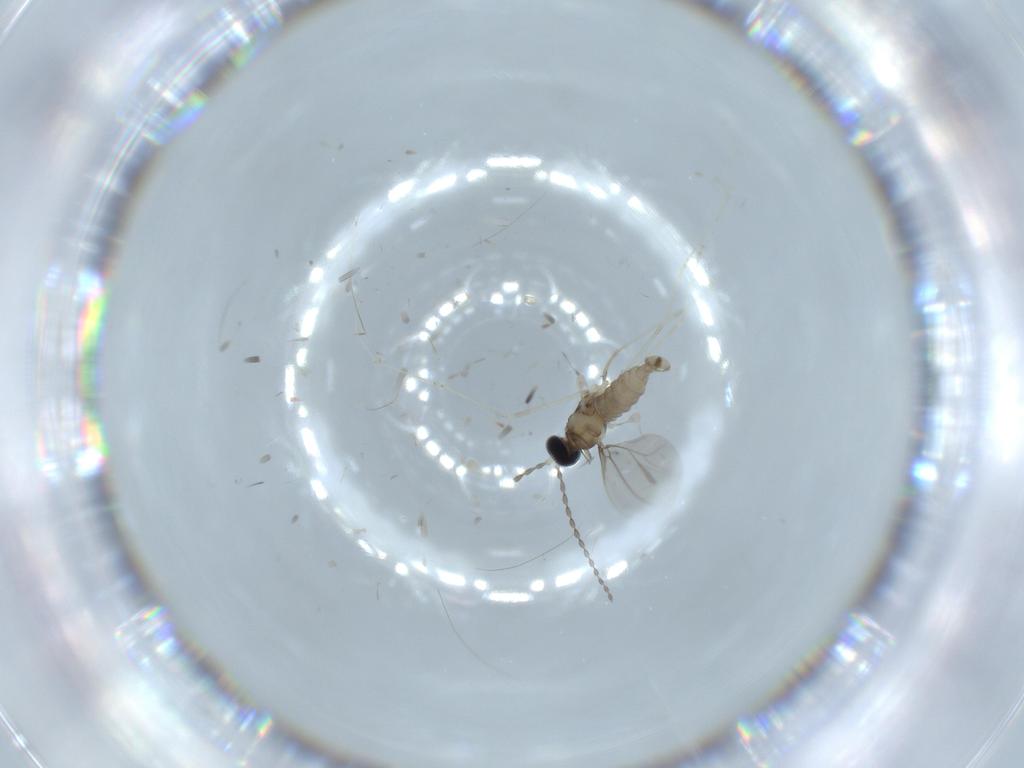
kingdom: Animalia
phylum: Arthropoda
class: Insecta
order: Diptera
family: Cecidomyiidae
